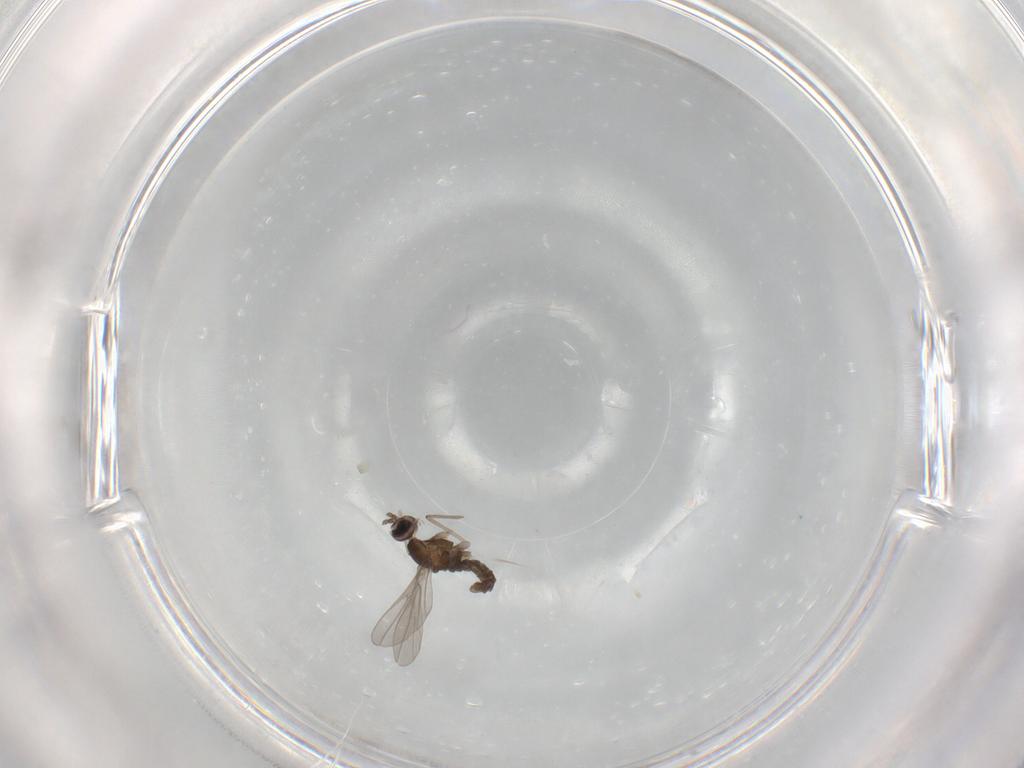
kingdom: Animalia
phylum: Arthropoda
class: Insecta
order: Diptera
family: Cecidomyiidae
